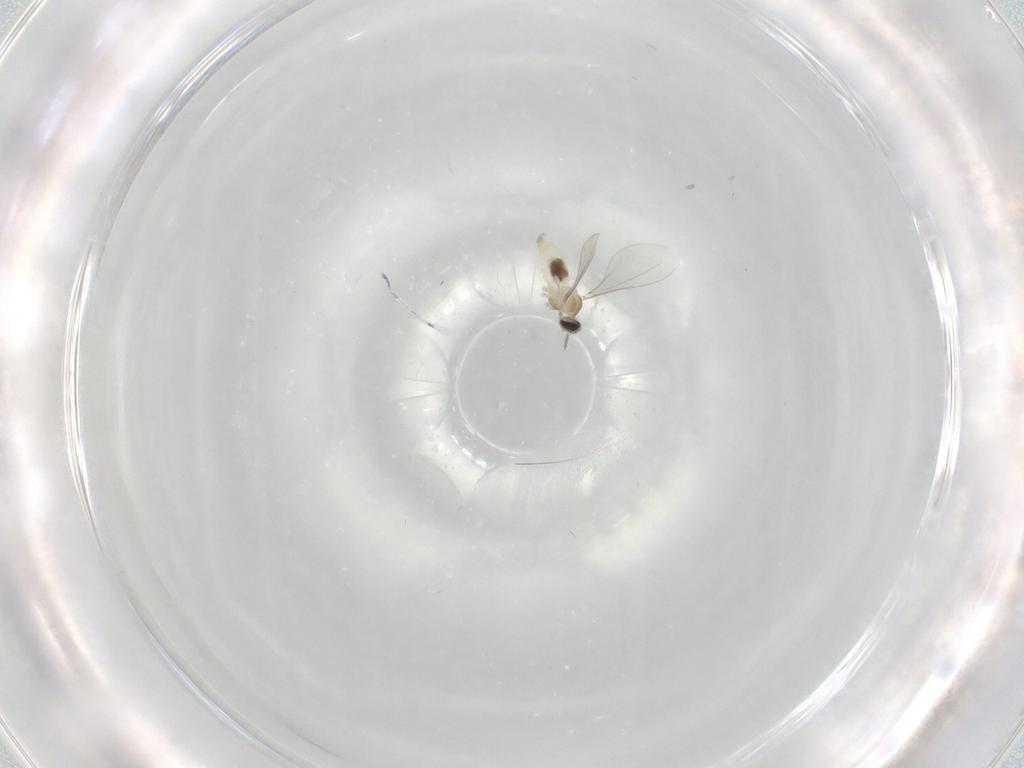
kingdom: Animalia
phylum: Arthropoda
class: Insecta
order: Diptera
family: Cecidomyiidae
